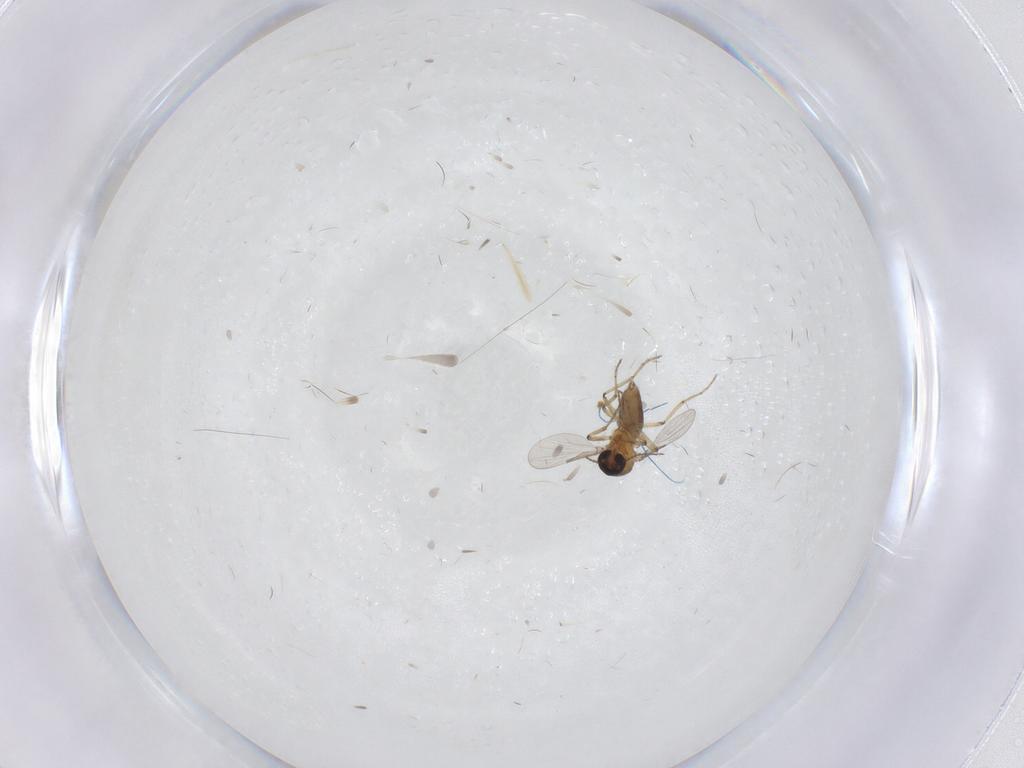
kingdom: Animalia
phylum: Arthropoda
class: Insecta
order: Diptera
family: Ceratopogonidae
